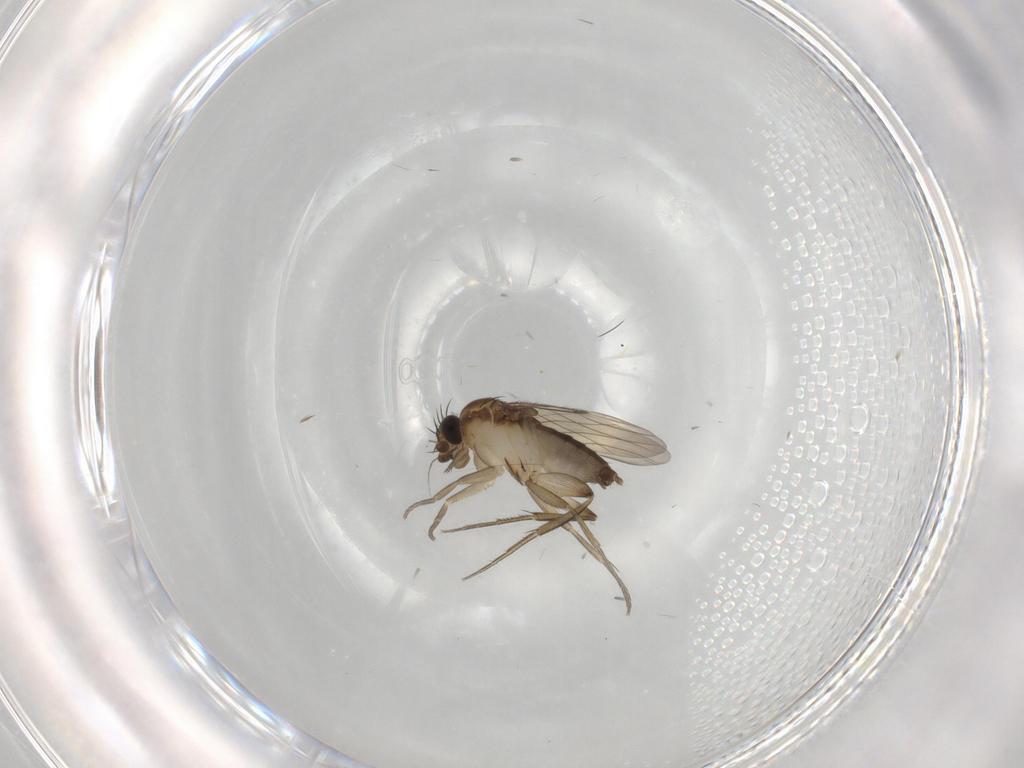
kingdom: Animalia
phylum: Arthropoda
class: Insecta
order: Diptera
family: Phoridae
